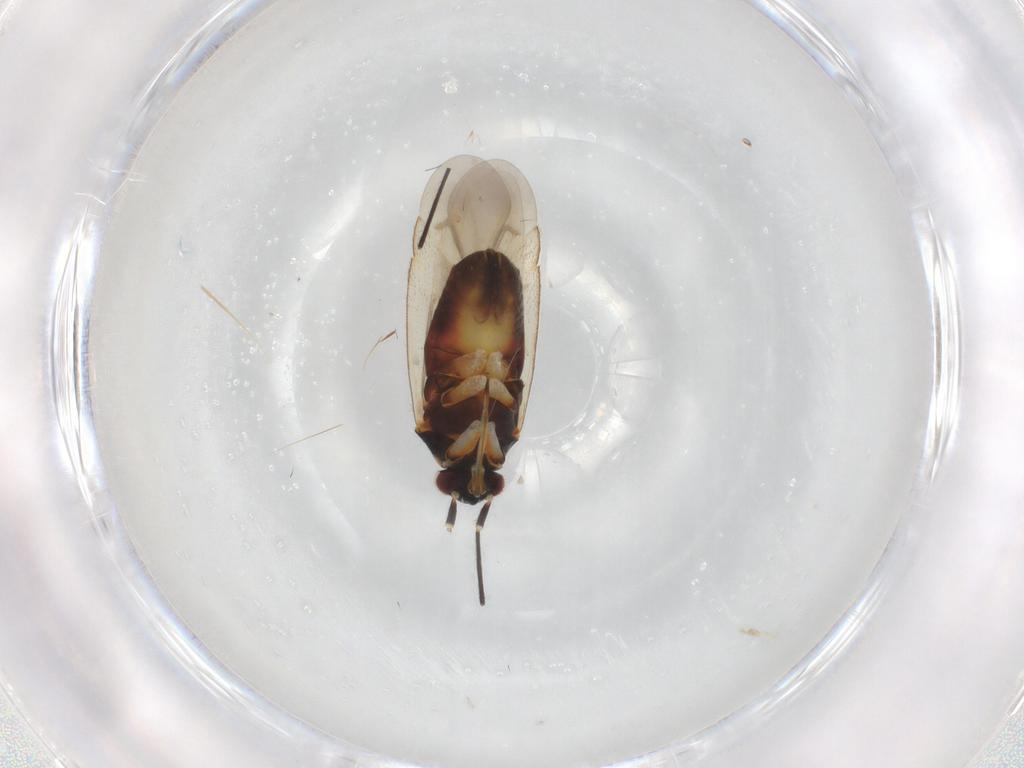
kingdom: Animalia
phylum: Arthropoda
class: Insecta
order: Hemiptera
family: Miridae
